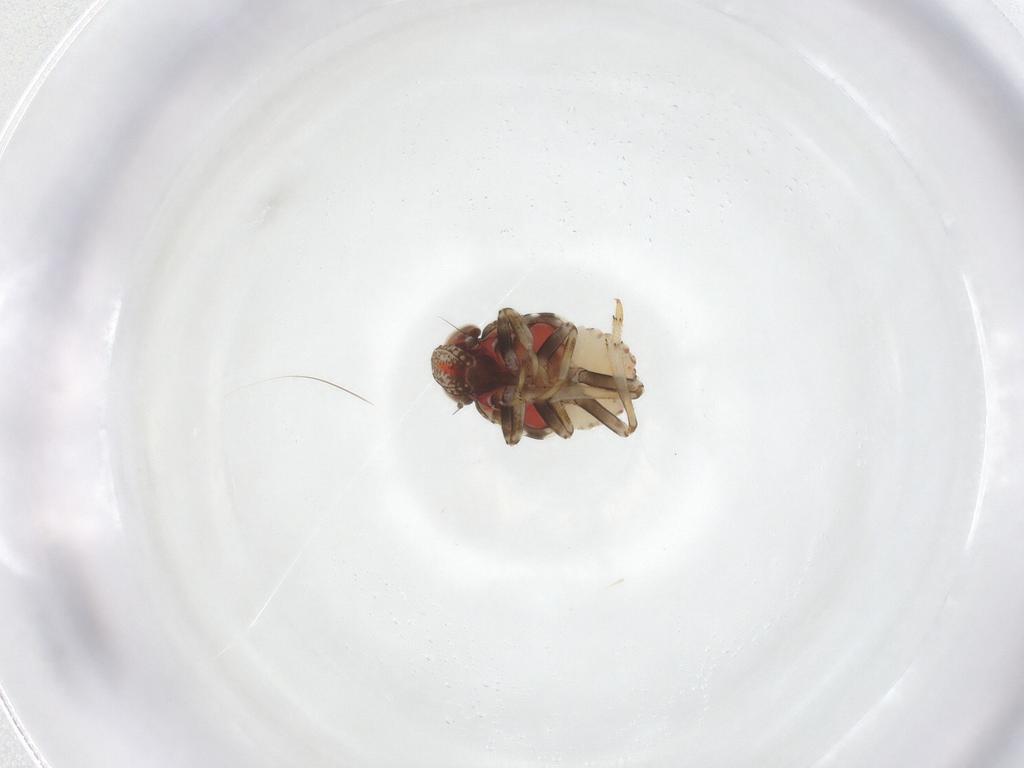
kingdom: Animalia
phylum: Arthropoda
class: Insecta
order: Hemiptera
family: Issidae
